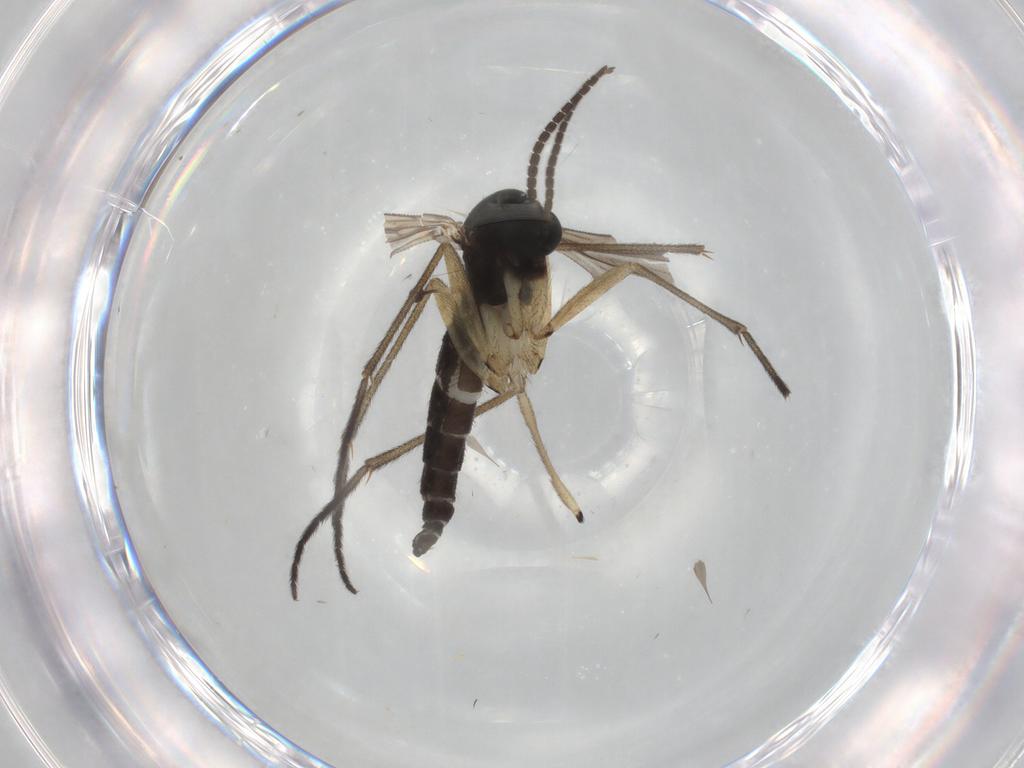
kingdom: Animalia
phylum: Arthropoda
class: Insecta
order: Diptera
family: Sciaridae
